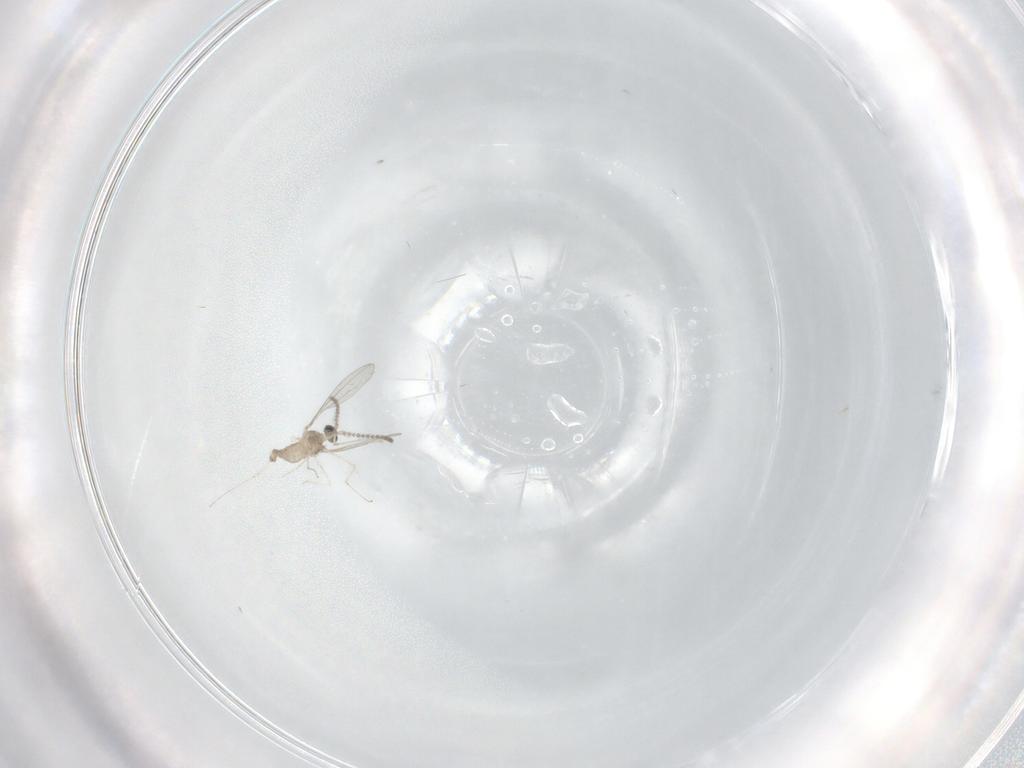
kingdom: Animalia
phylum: Arthropoda
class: Insecta
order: Diptera
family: Cecidomyiidae
